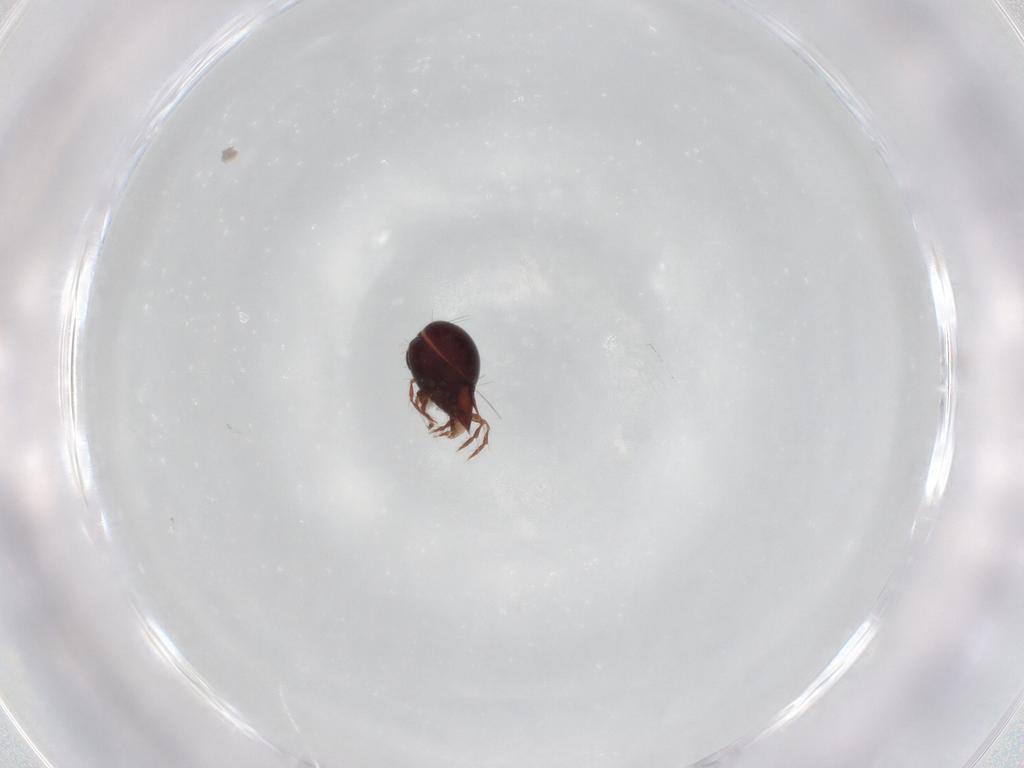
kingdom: Animalia
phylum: Arthropoda
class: Arachnida
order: Sarcoptiformes
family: Ceratoppiidae
